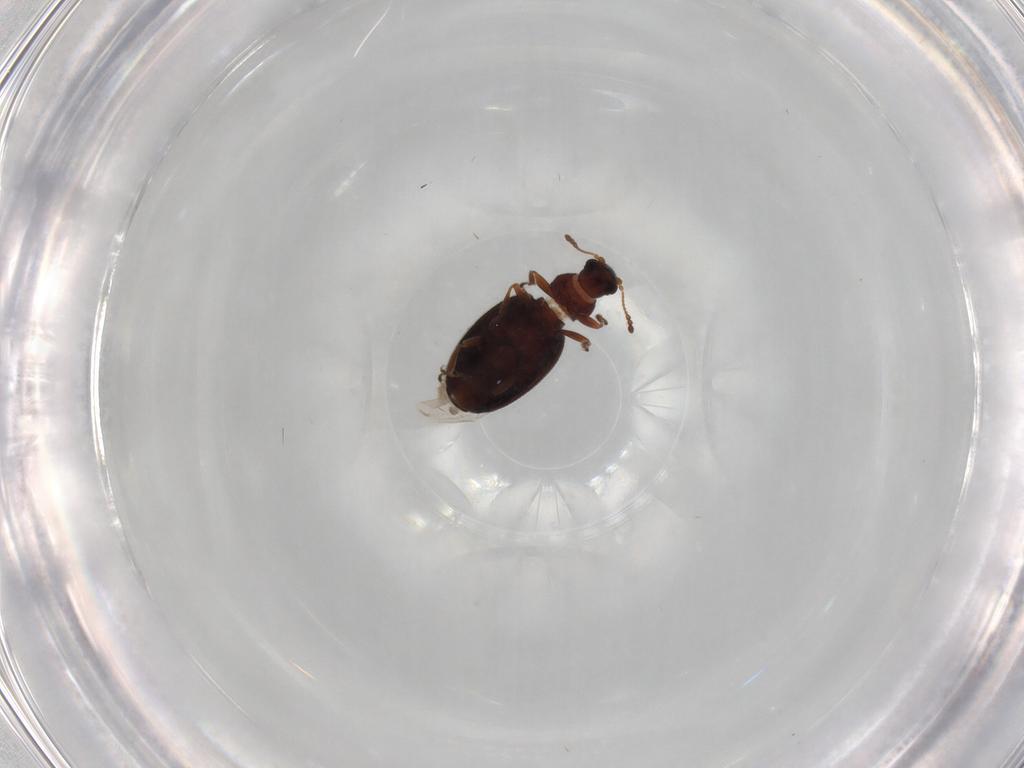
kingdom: Animalia
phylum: Arthropoda
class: Insecta
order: Coleoptera
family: Latridiidae
